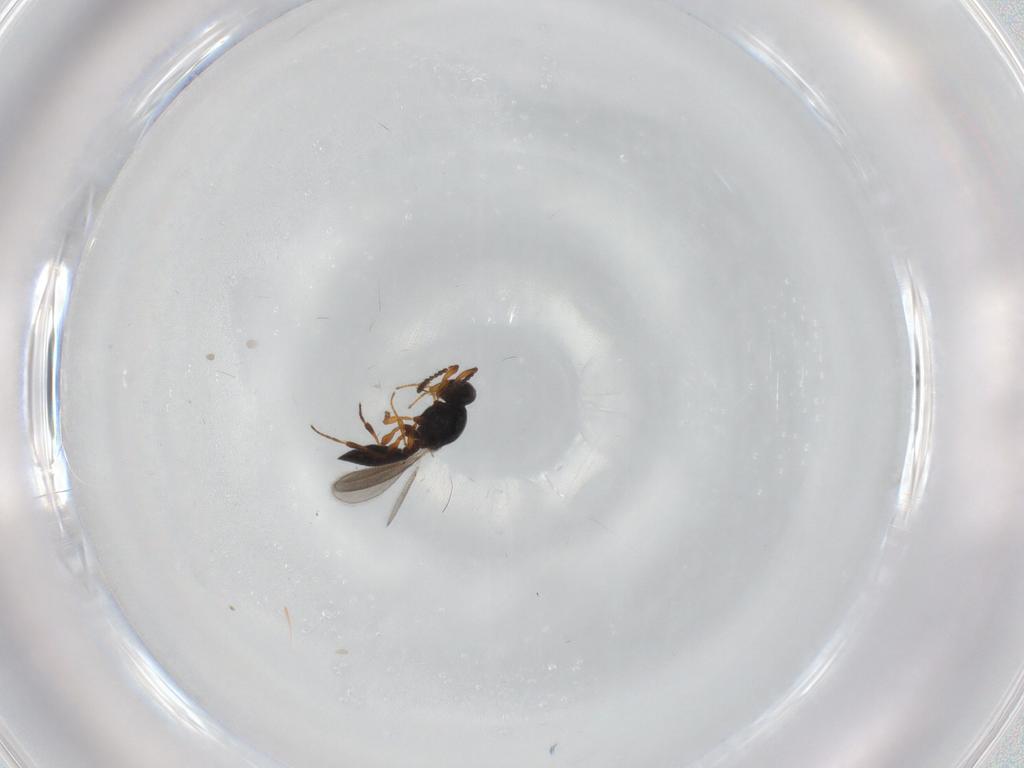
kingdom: Animalia
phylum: Arthropoda
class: Insecta
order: Hymenoptera
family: Platygastridae
